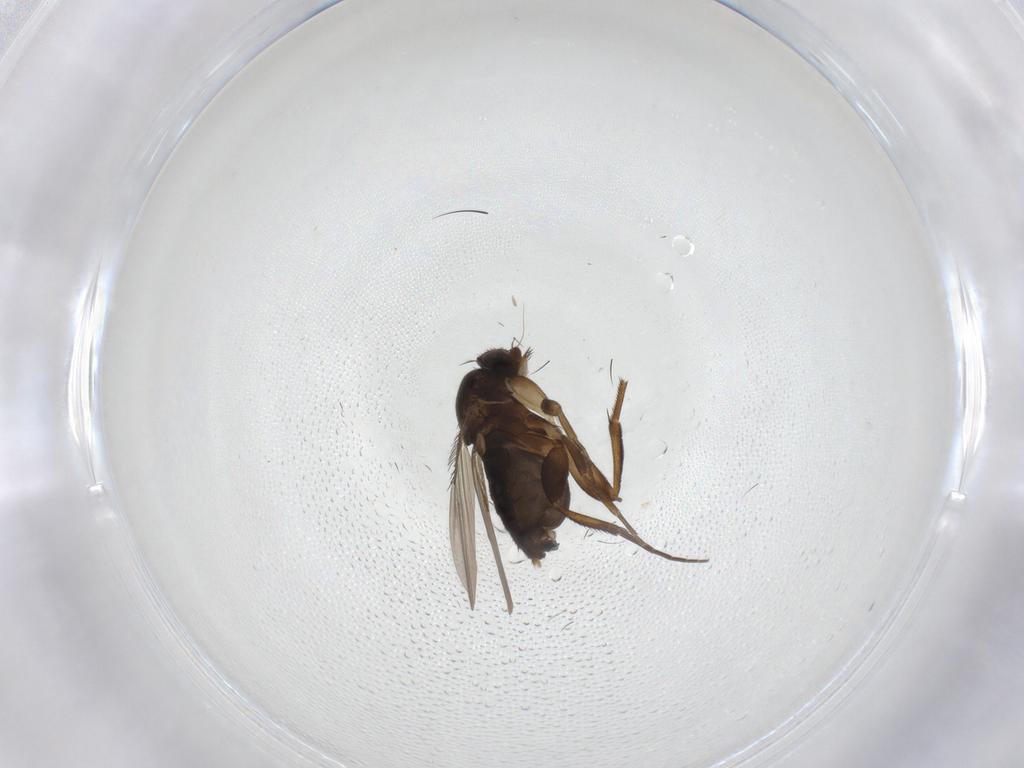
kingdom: Animalia
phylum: Arthropoda
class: Insecta
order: Diptera
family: Phoridae
